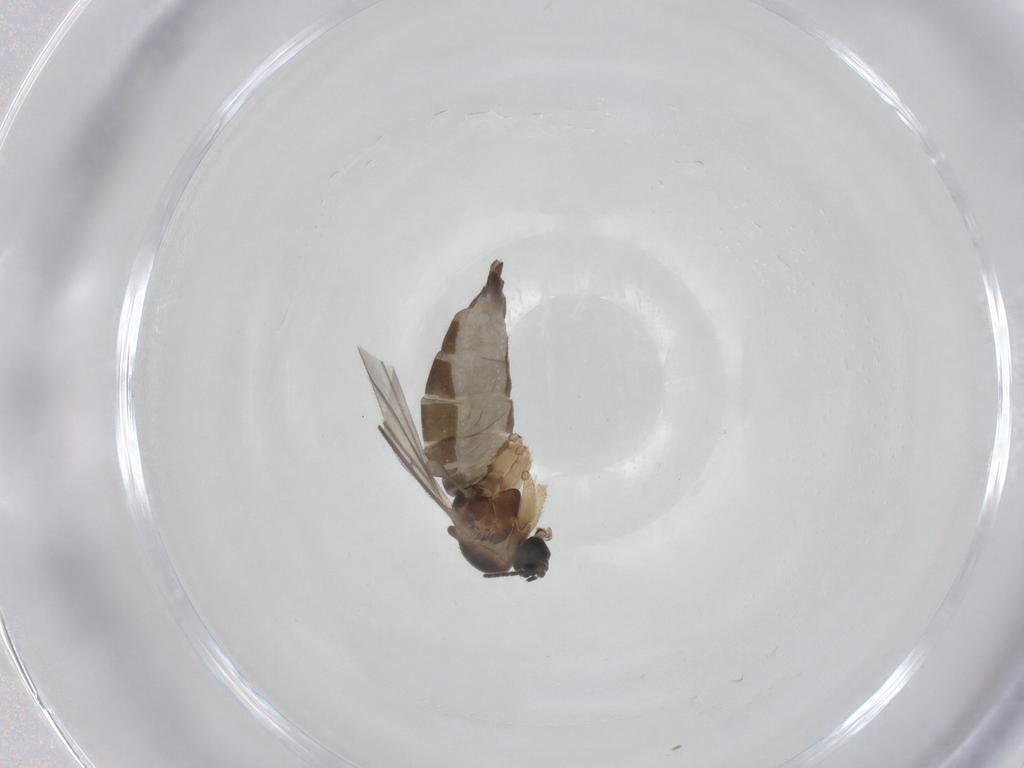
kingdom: Animalia
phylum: Arthropoda
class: Insecta
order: Diptera
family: Sciaridae
